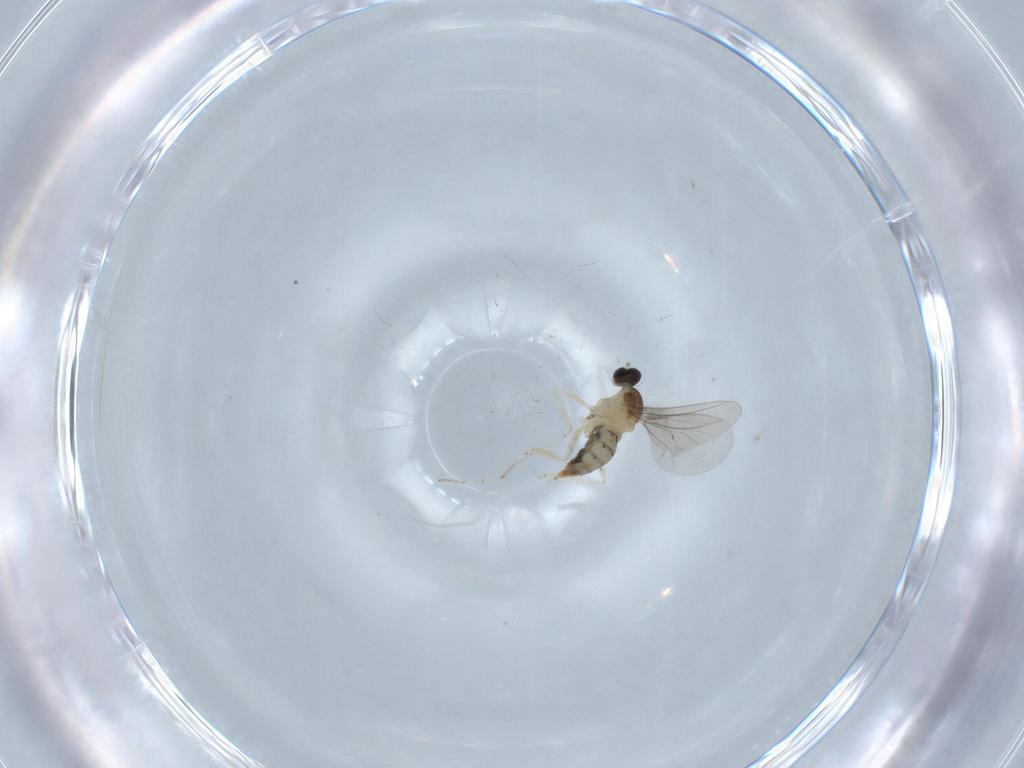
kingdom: Animalia
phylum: Arthropoda
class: Insecta
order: Diptera
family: Cecidomyiidae
